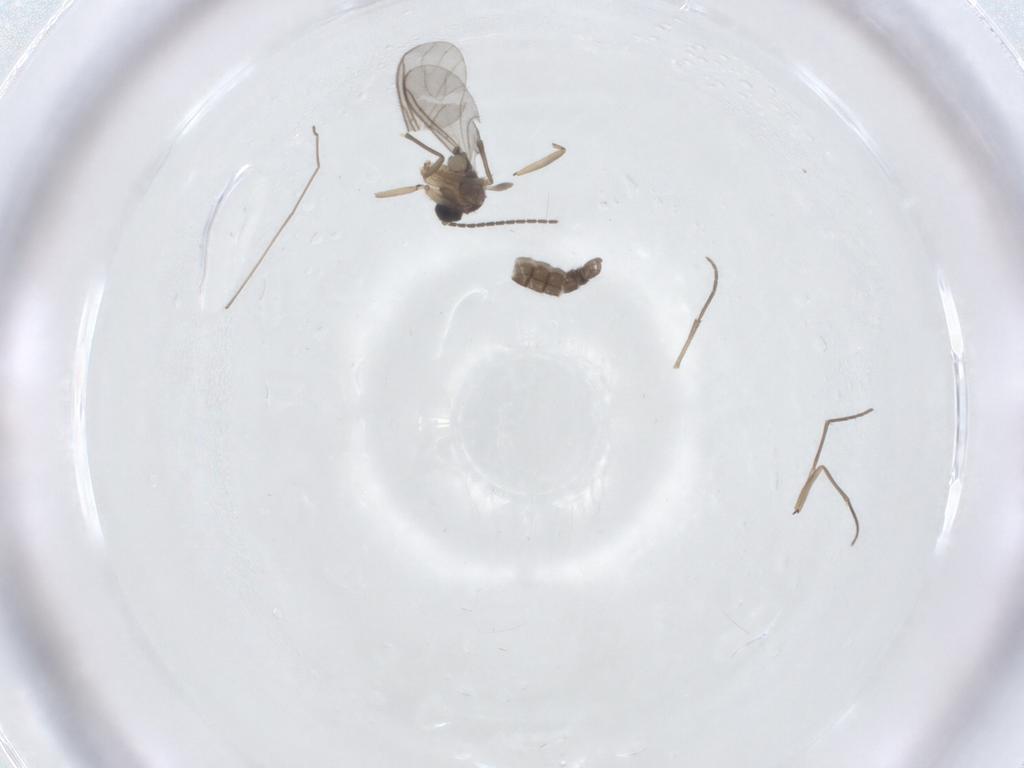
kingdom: Animalia
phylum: Arthropoda
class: Insecta
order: Diptera
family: Sciaridae
